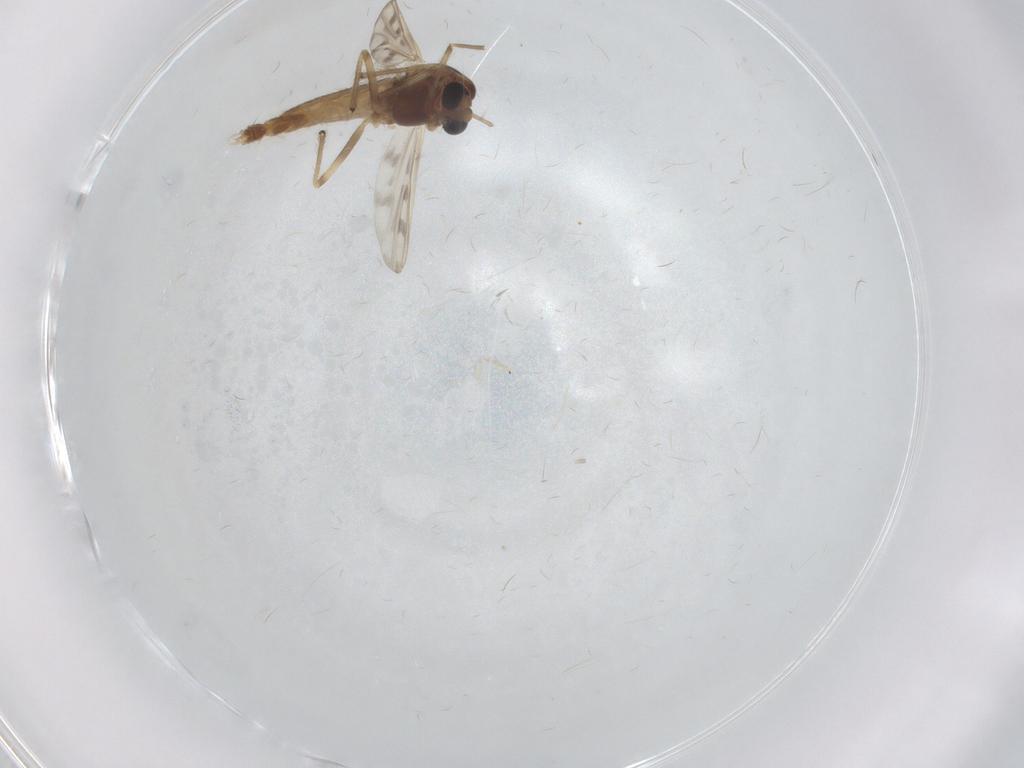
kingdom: Animalia
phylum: Arthropoda
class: Insecta
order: Diptera
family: Chironomidae
